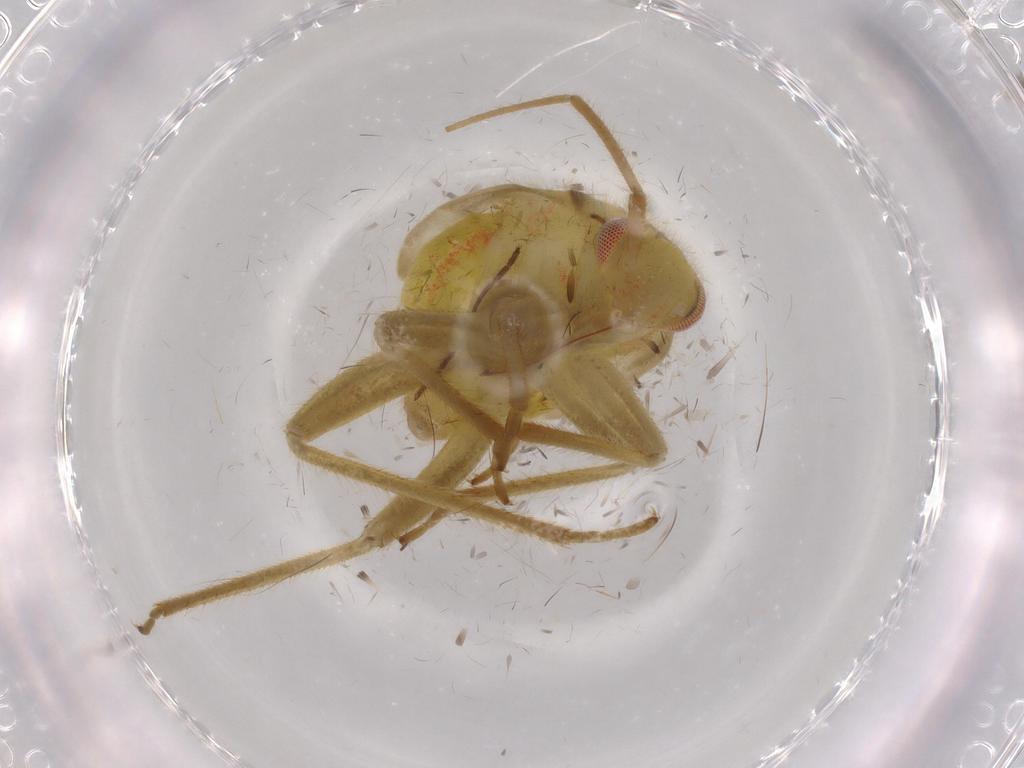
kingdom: Animalia
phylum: Arthropoda
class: Insecta
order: Hemiptera
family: Miridae
